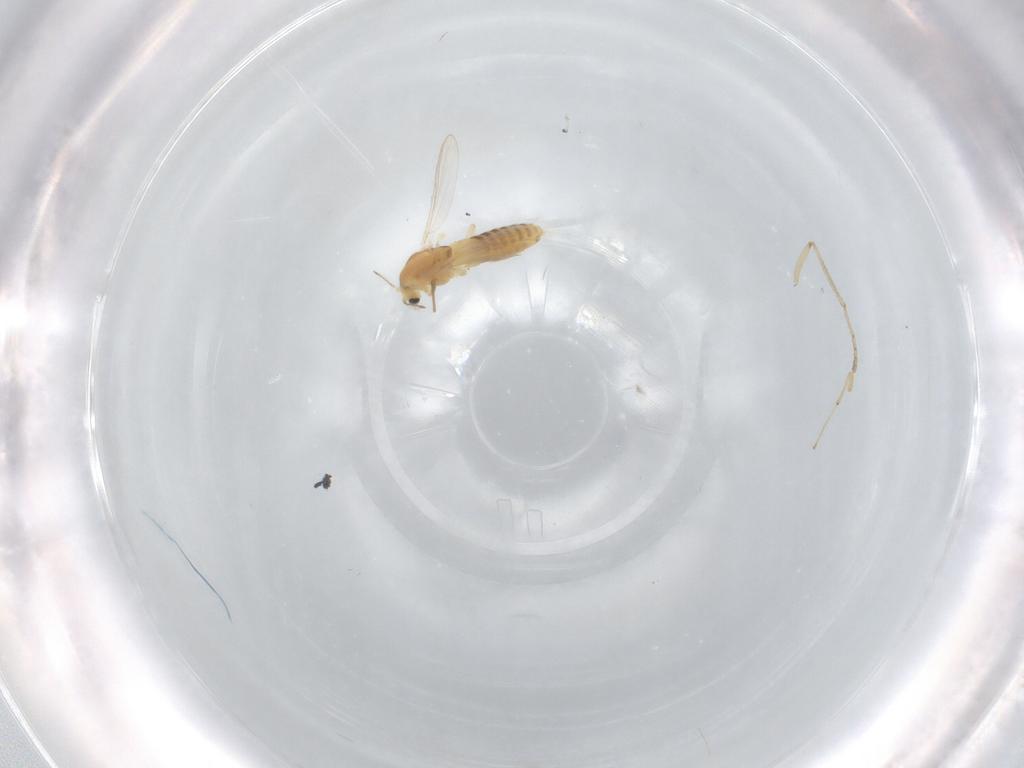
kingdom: Animalia
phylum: Arthropoda
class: Insecta
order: Diptera
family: Chironomidae
